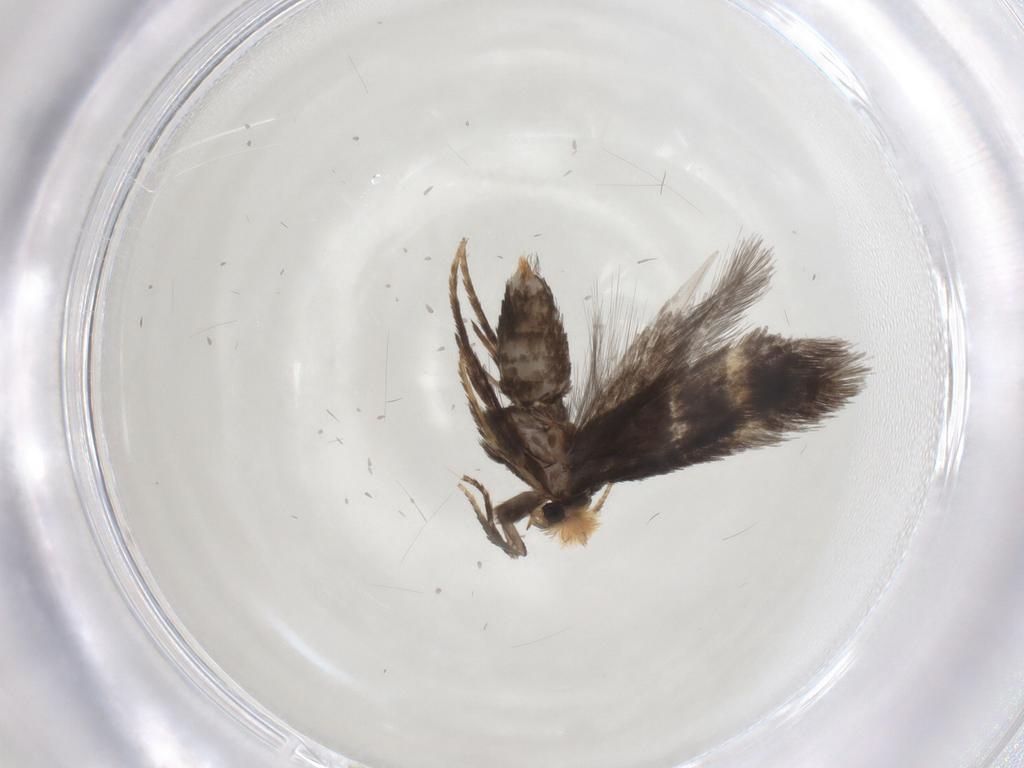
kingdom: Animalia
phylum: Arthropoda
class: Insecta
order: Lepidoptera
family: Nepticulidae
